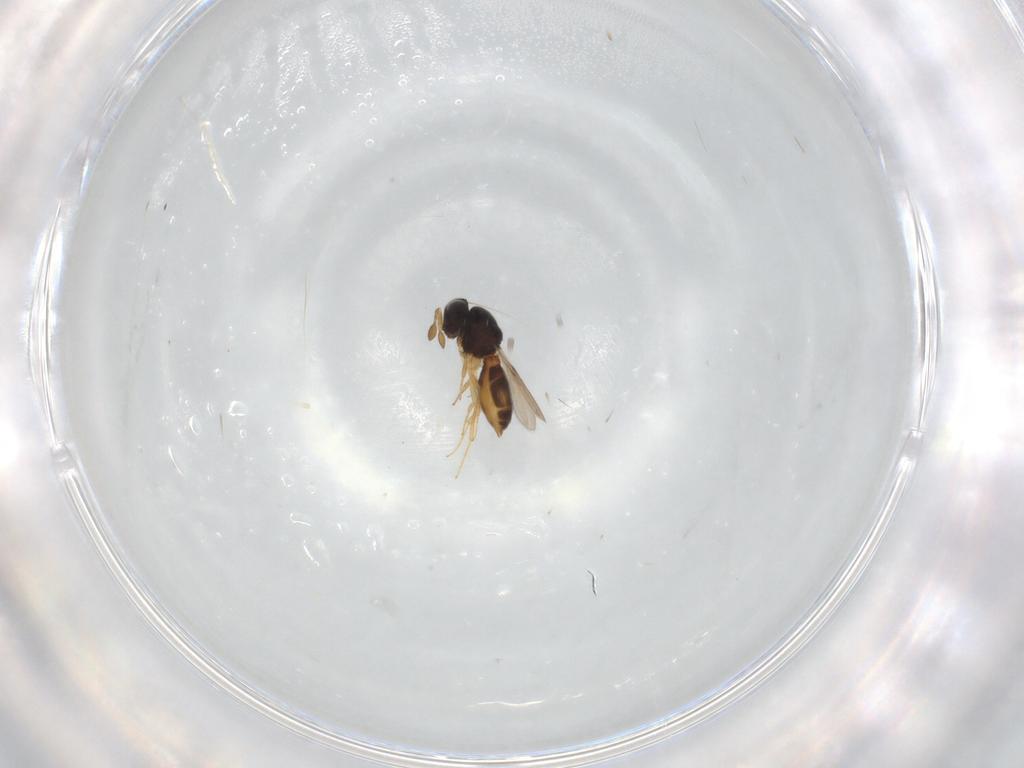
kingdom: Animalia
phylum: Arthropoda
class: Insecta
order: Hymenoptera
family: Scelionidae
